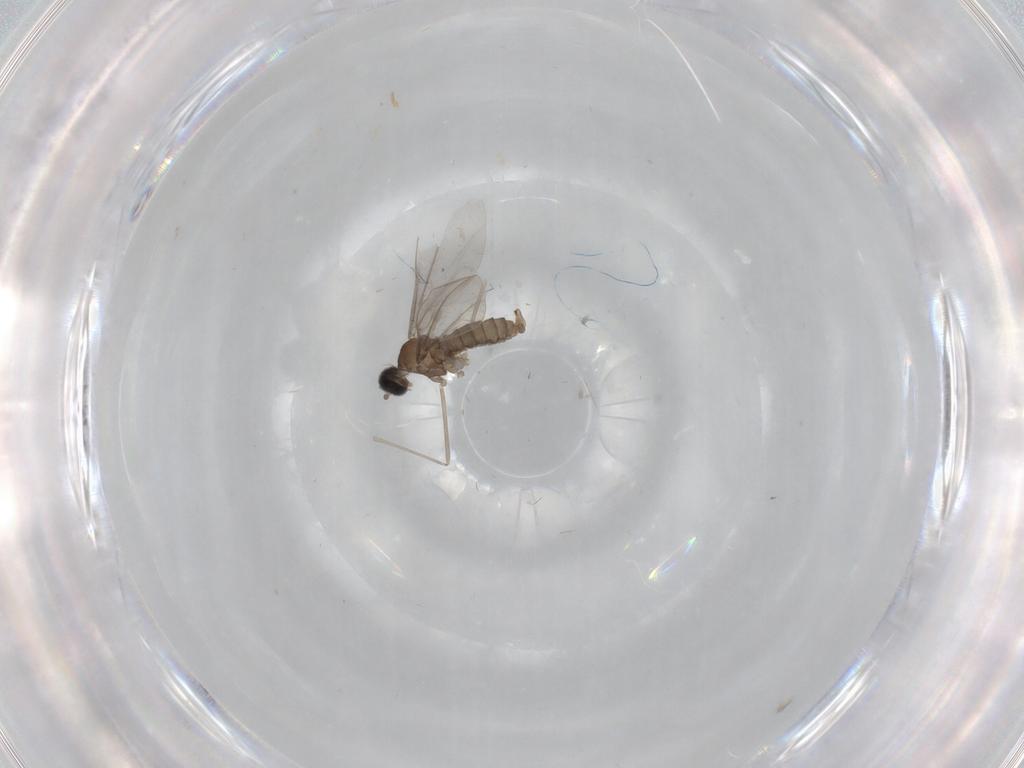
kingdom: Animalia
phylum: Arthropoda
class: Insecta
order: Diptera
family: Cecidomyiidae
